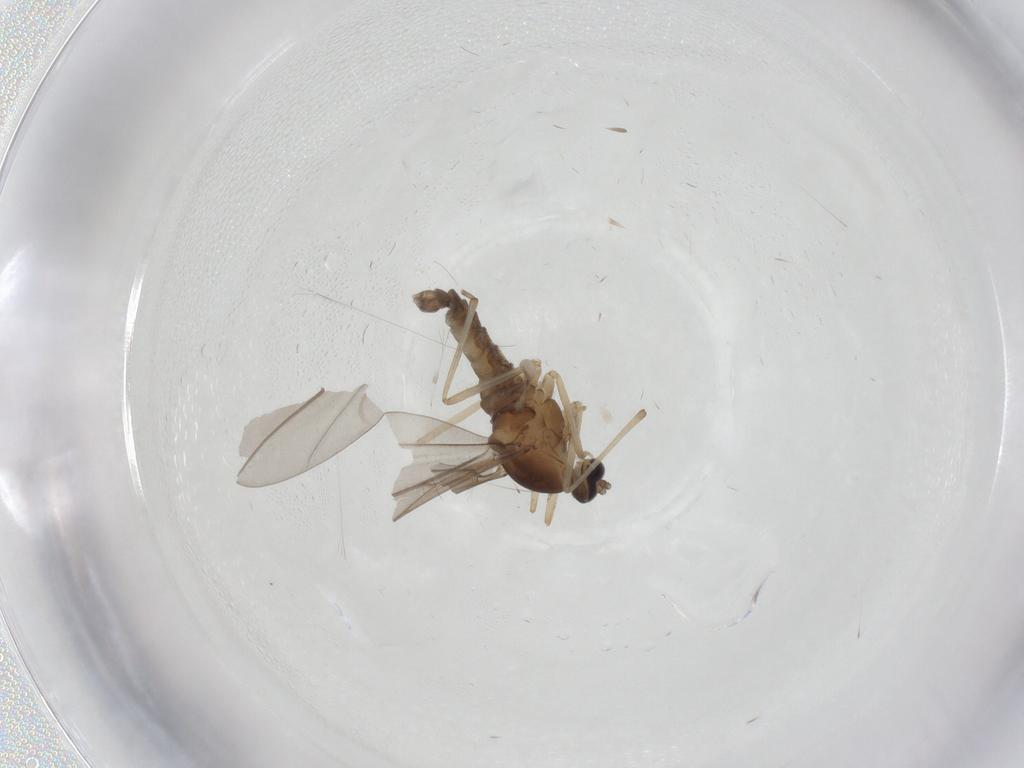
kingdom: Animalia
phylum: Arthropoda
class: Insecta
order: Diptera
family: Cecidomyiidae
